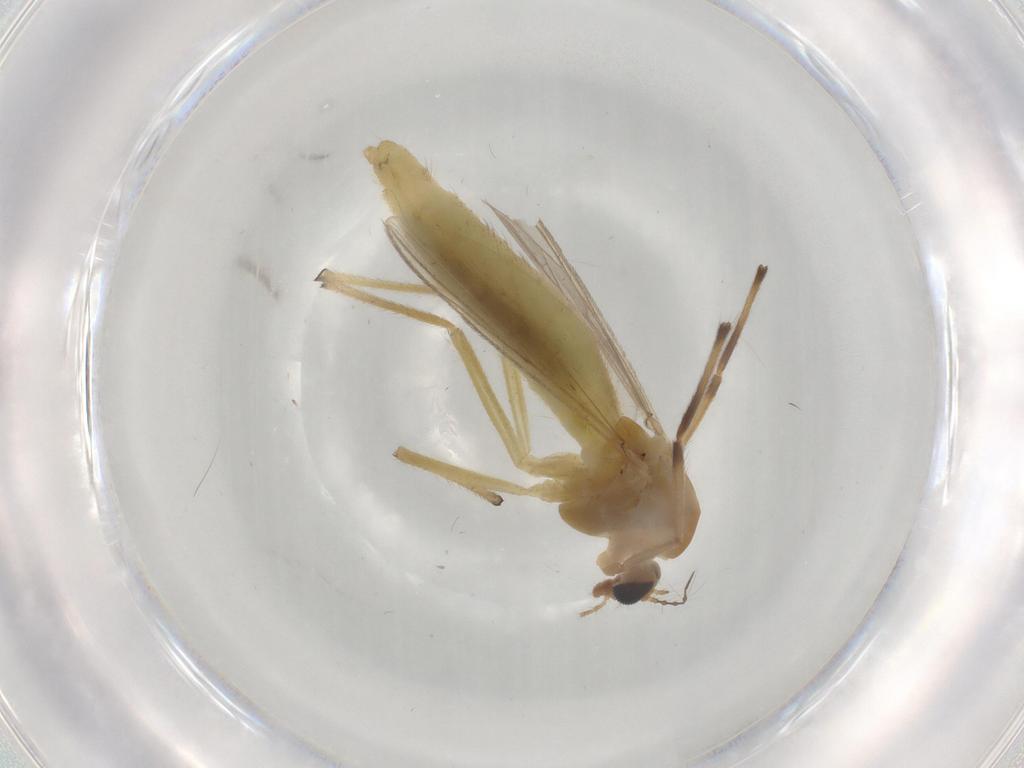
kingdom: Animalia
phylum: Arthropoda
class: Insecta
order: Diptera
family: Cecidomyiidae
